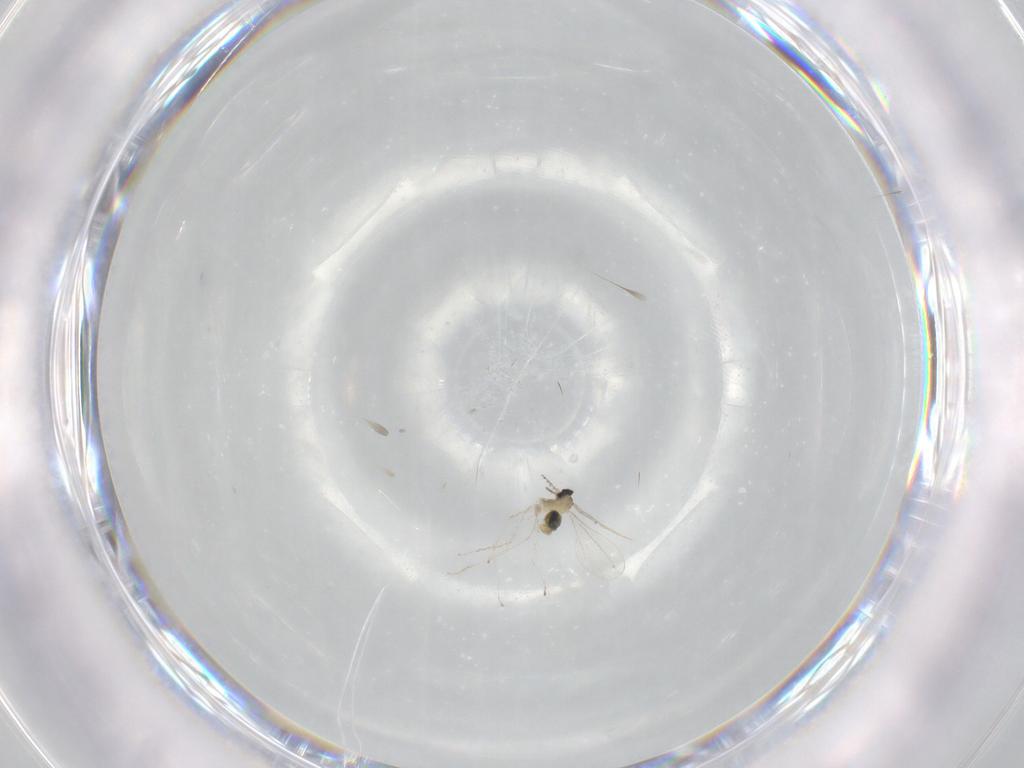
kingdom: Animalia
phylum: Arthropoda
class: Insecta
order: Diptera
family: Cecidomyiidae
